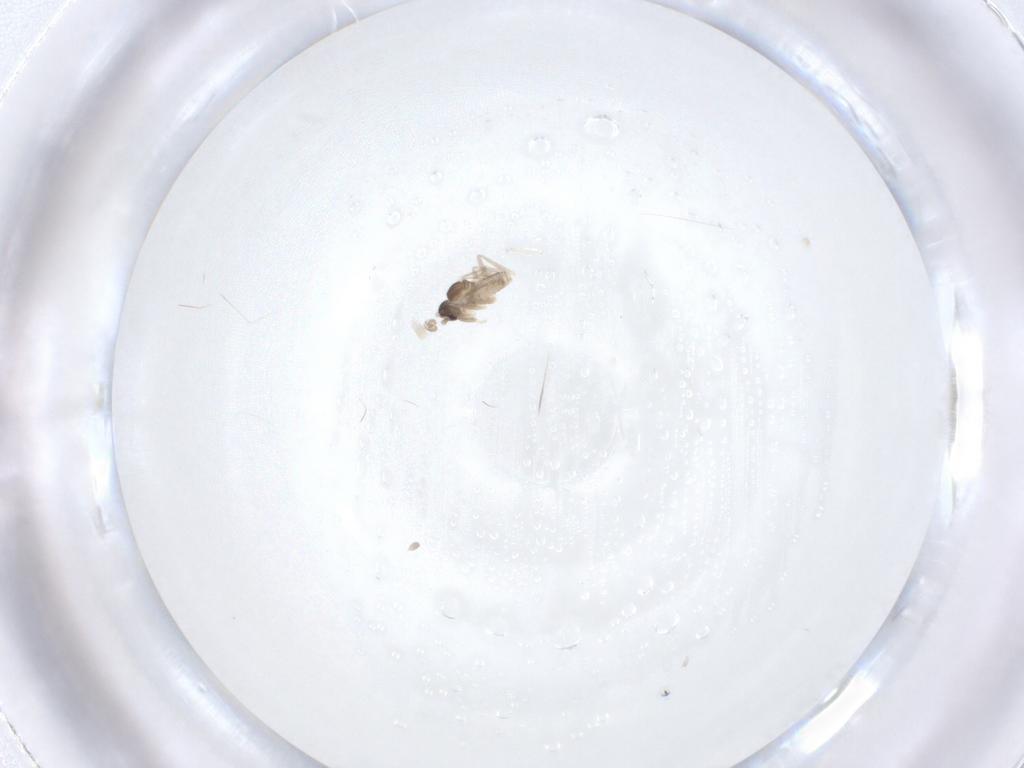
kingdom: Animalia
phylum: Arthropoda
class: Insecta
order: Diptera
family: Cecidomyiidae
